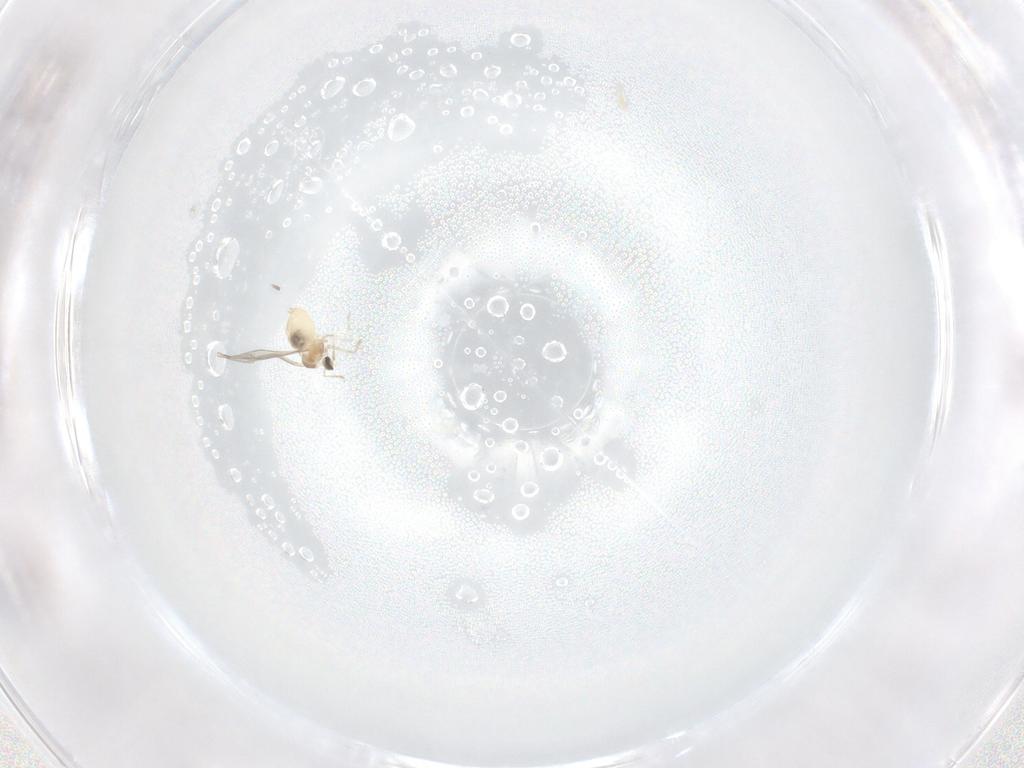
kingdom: Animalia
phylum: Arthropoda
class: Insecta
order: Diptera
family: Sciaridae
